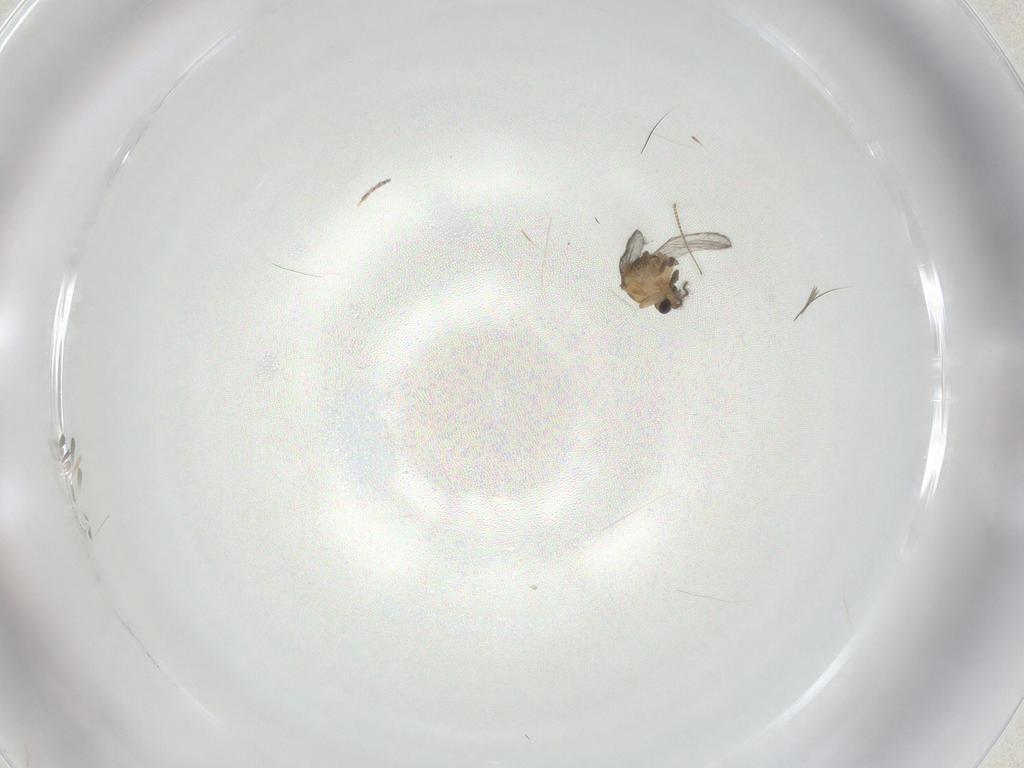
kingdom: Animalia
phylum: Arthropoda
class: Insecta
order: Diptera
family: Ceratopogonidae
